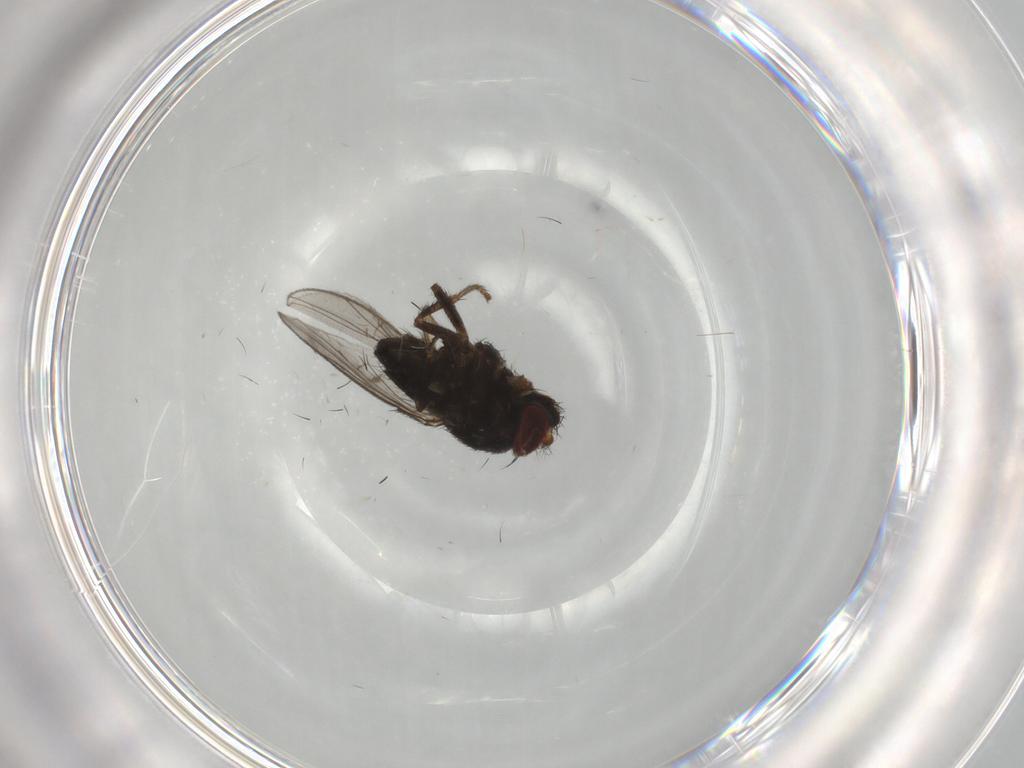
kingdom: Animalia
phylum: Arthropoda
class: Insecta
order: Diptera
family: Ephydridae
